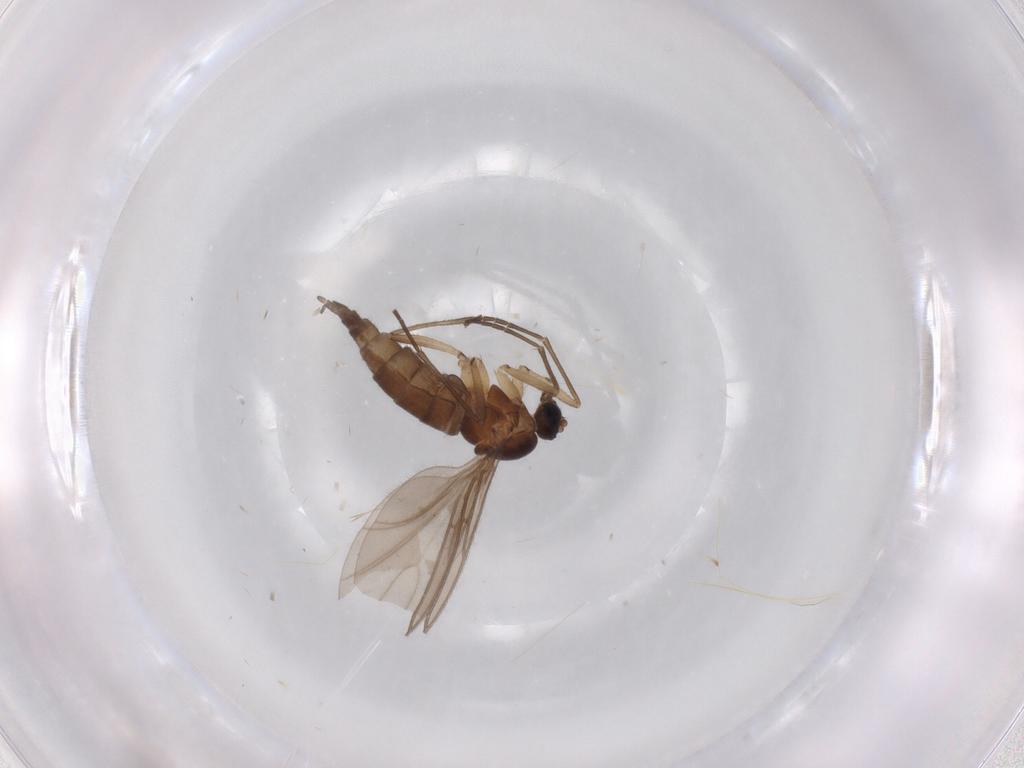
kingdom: Animalia
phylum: Arthropoda
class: Insecta
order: Diptera
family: Sciaridae
